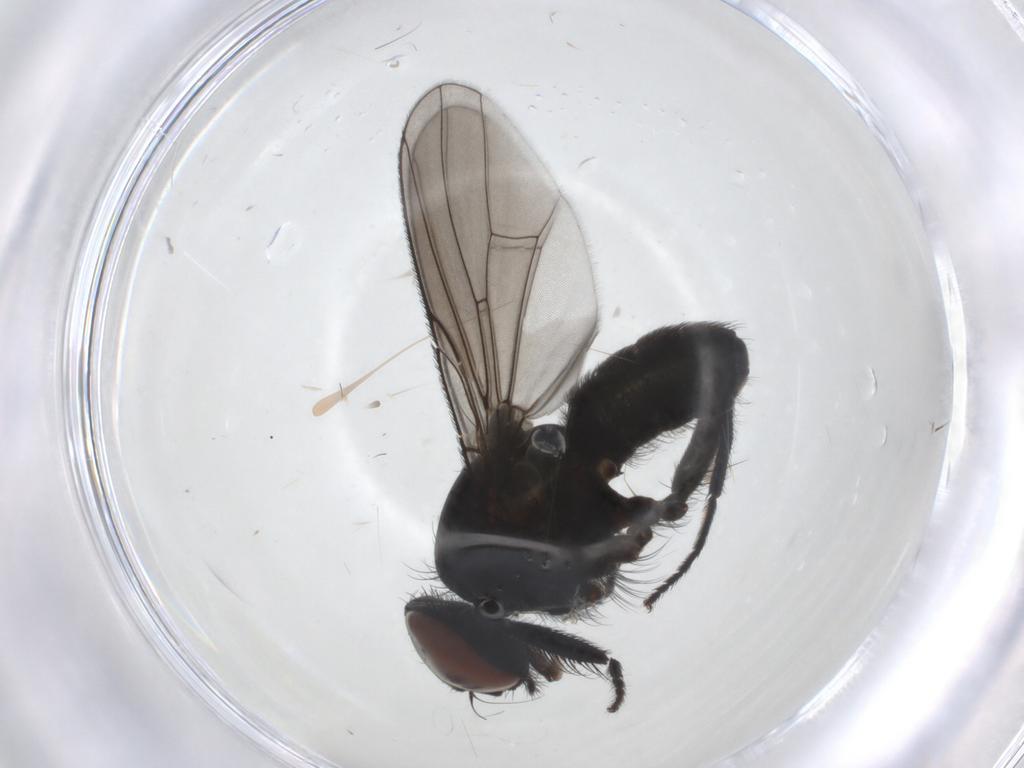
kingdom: Animalia
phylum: Arthropoda
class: Insecta
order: Diptera
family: Muscidae
